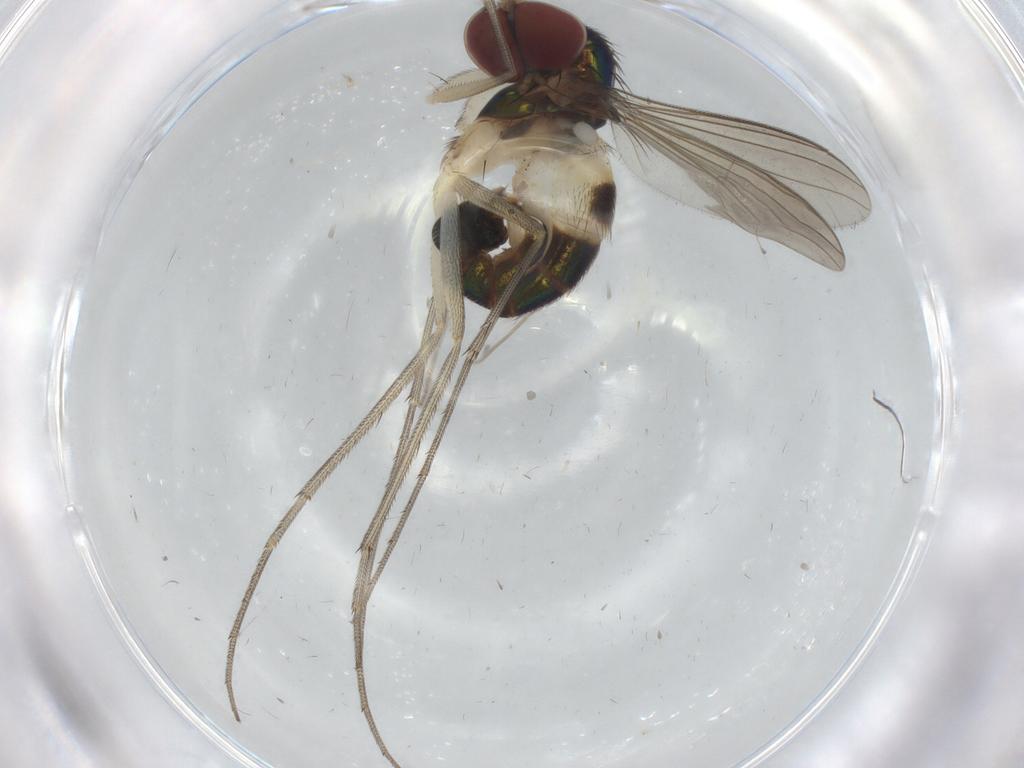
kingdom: Animalia
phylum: Arthropoda
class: Insecta
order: Diptera
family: Dolichopodidae
